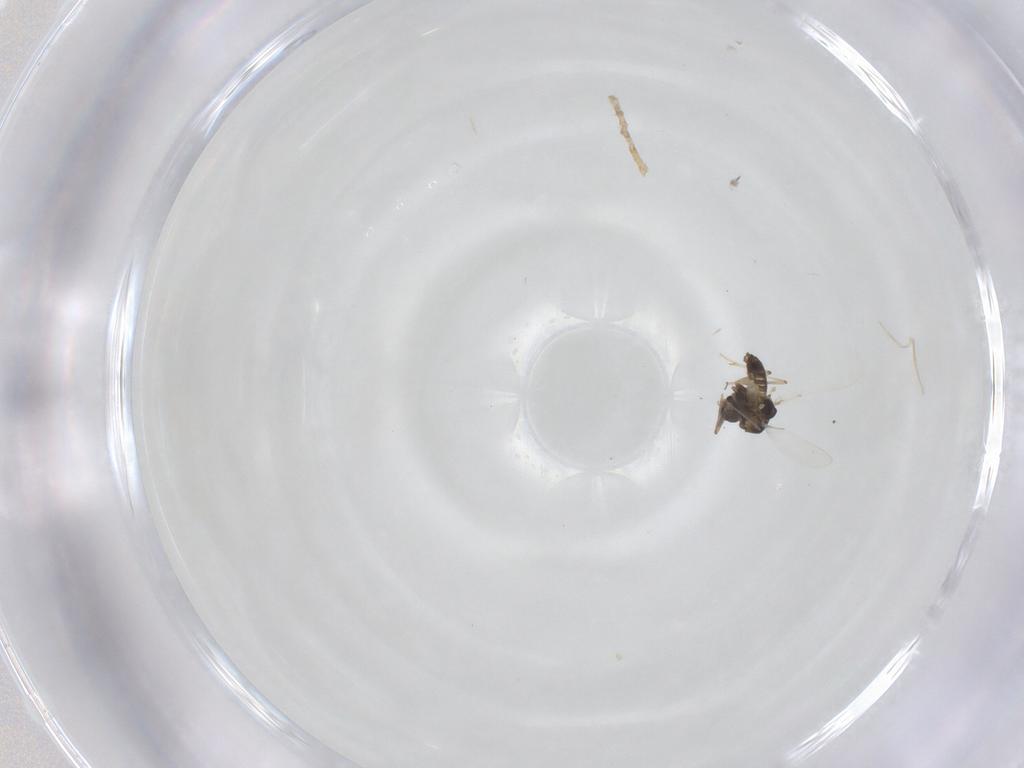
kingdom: Animalia
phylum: Arthropoda
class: Insecta
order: Diptera
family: Chironomidae
